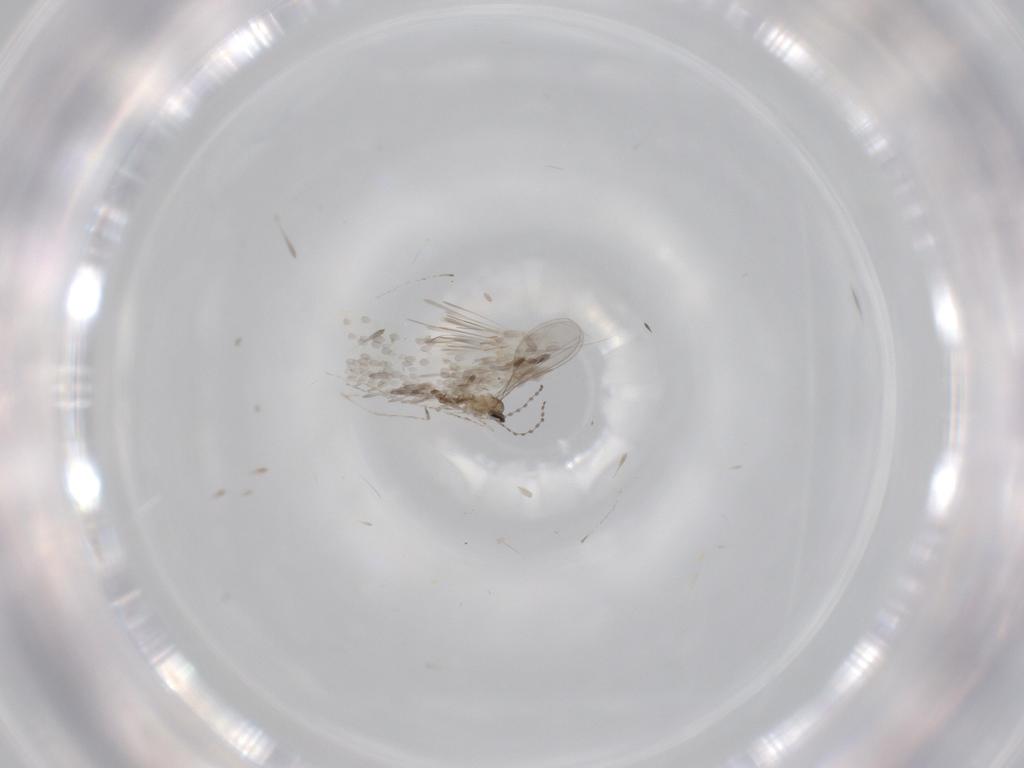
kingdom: Animalia
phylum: Arthropoda
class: Insecta
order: Diptera
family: Cecidomyiidae
